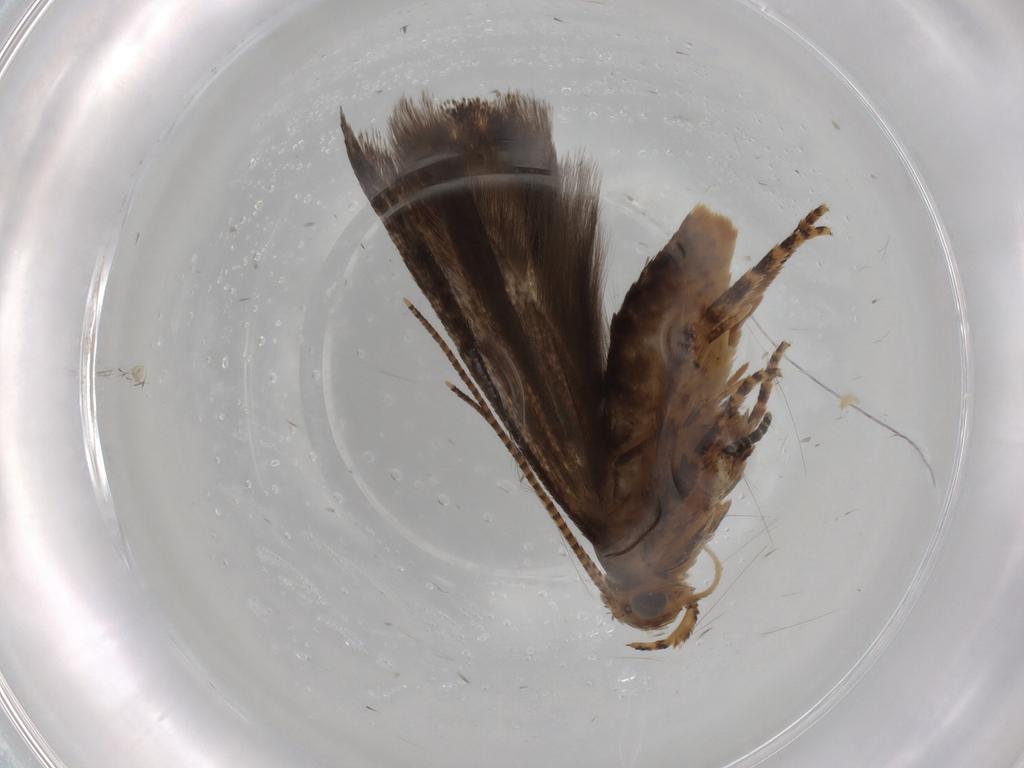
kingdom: Animalia
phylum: Arthropoda
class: Insecta
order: Lepidoptera
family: Gelechiidae
